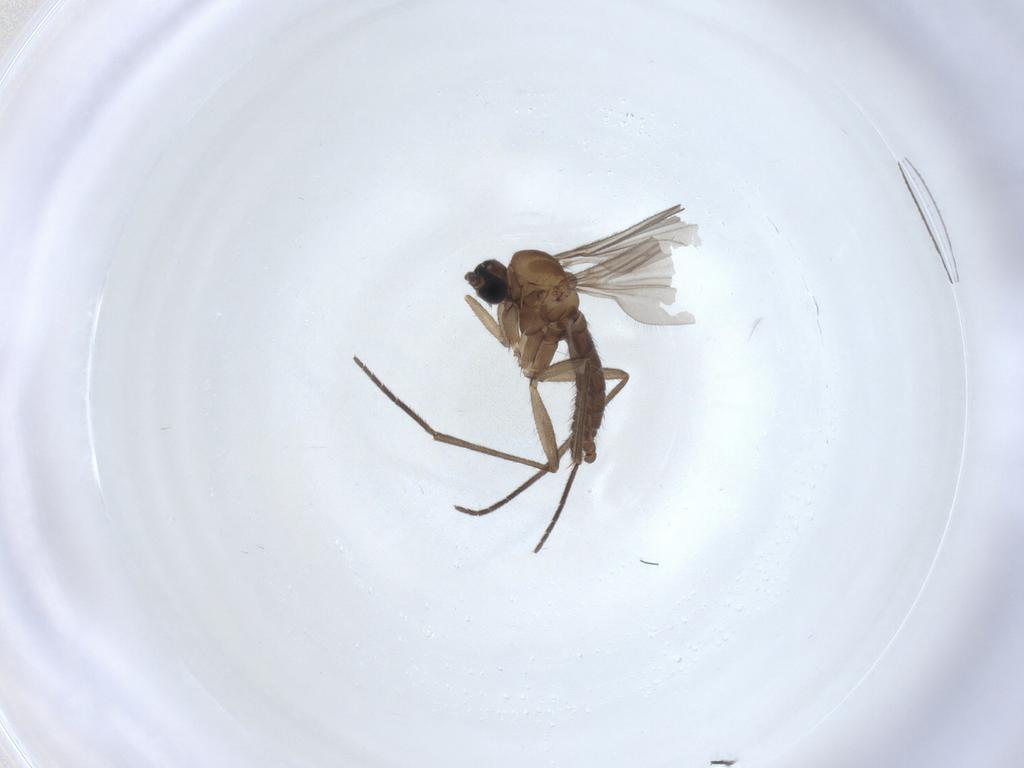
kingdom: Animalia
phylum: Arthropoda
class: Insecta
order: Diptera
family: Sciaridae
